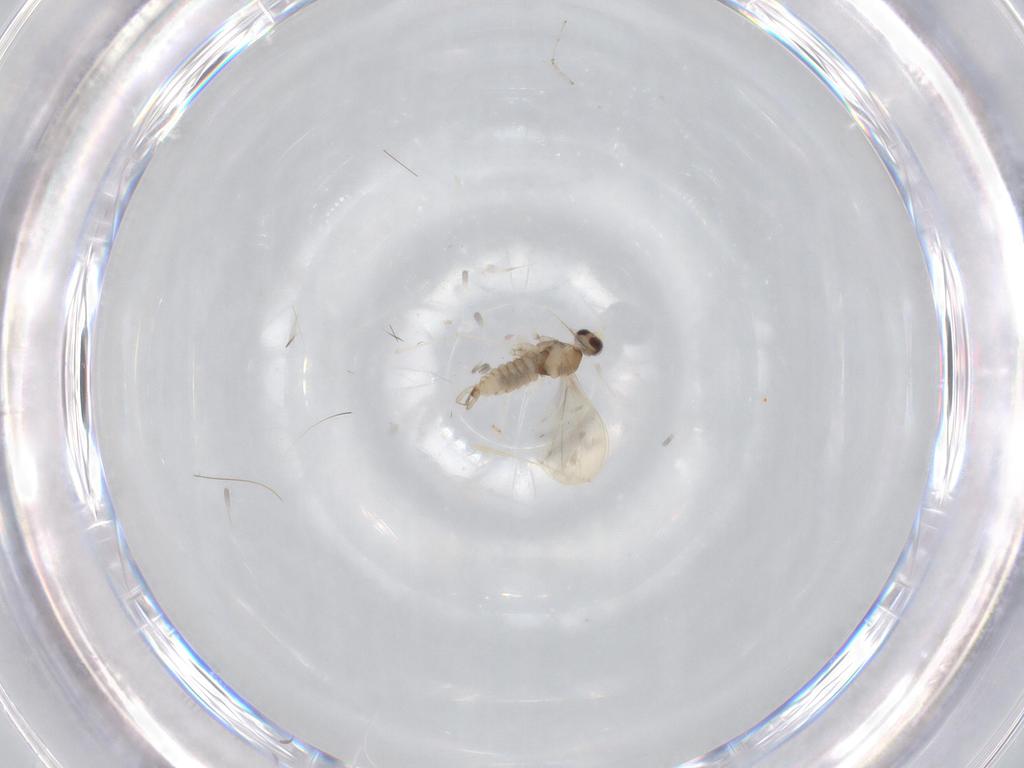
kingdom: Animalia
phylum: Arthropoda
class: Insecta
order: Diptera
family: Cecidomyiidae
